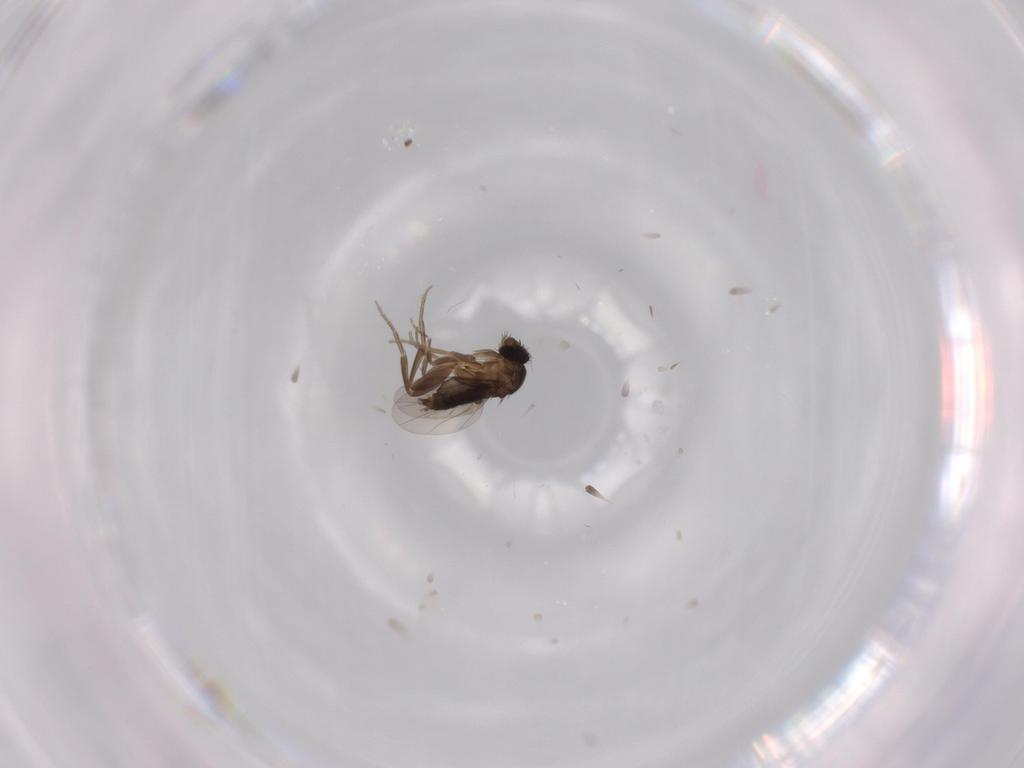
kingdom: Animalia
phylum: Arthropoda
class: Insecta
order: Diptera
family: Phoridae
